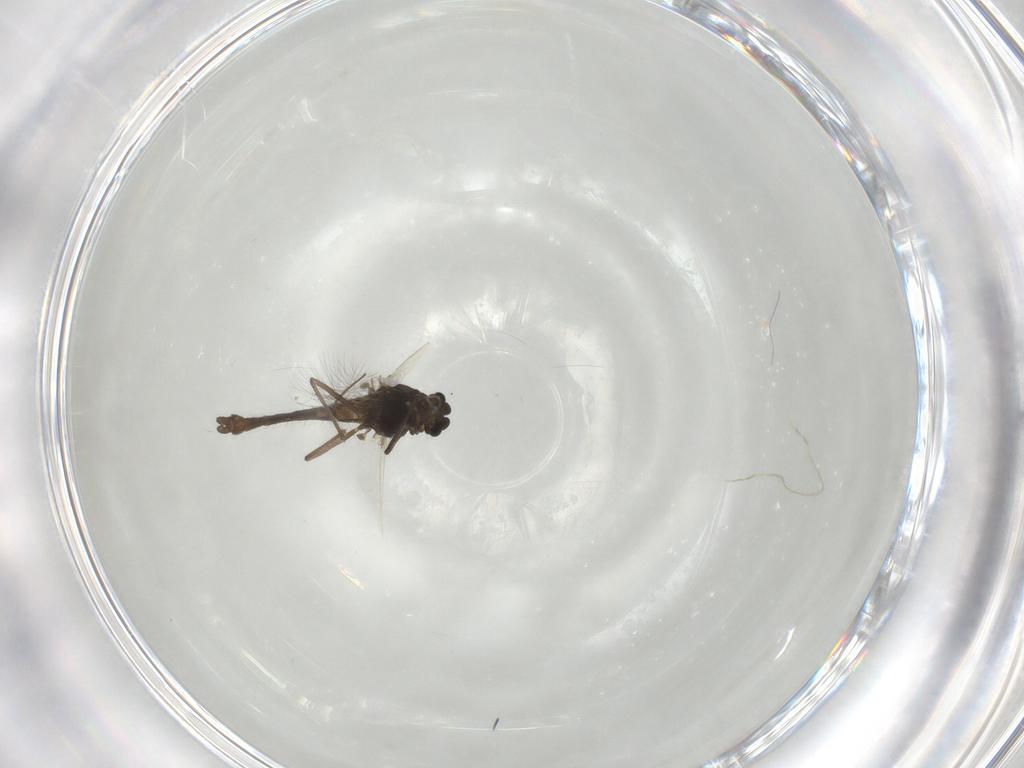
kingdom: Animalia
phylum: Arthropoda
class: Insecta
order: Diptera
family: Chironomidae
